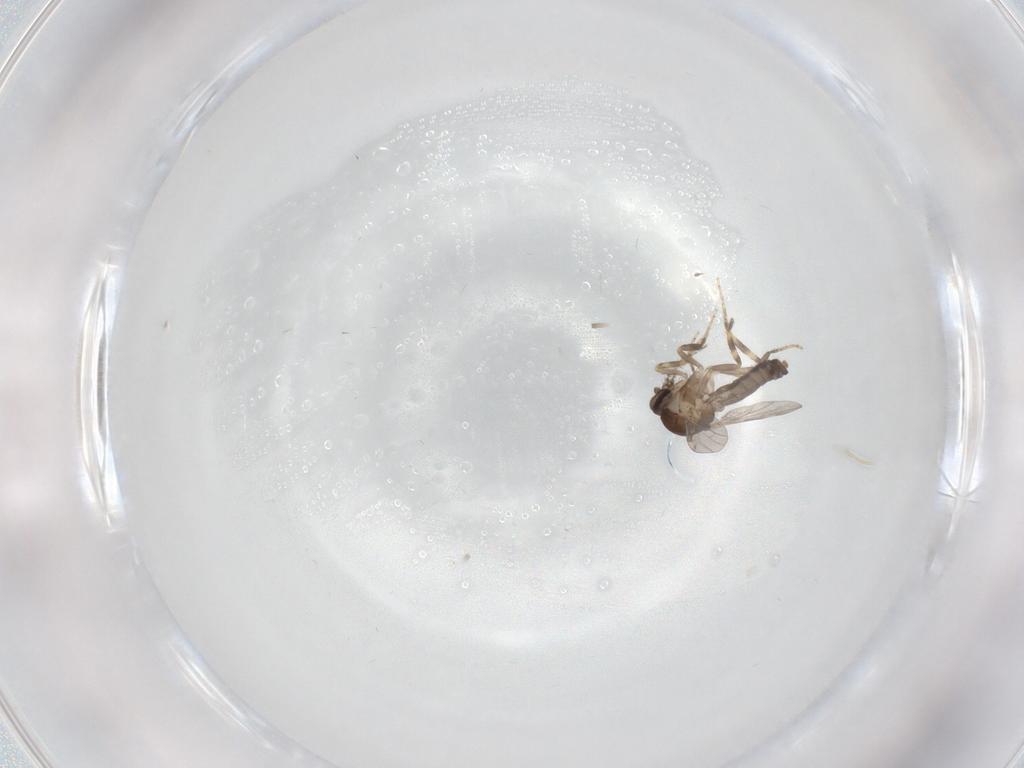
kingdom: Animalia
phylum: Arthropoda
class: Insecta
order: Diptera
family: Ceratopogonidae
